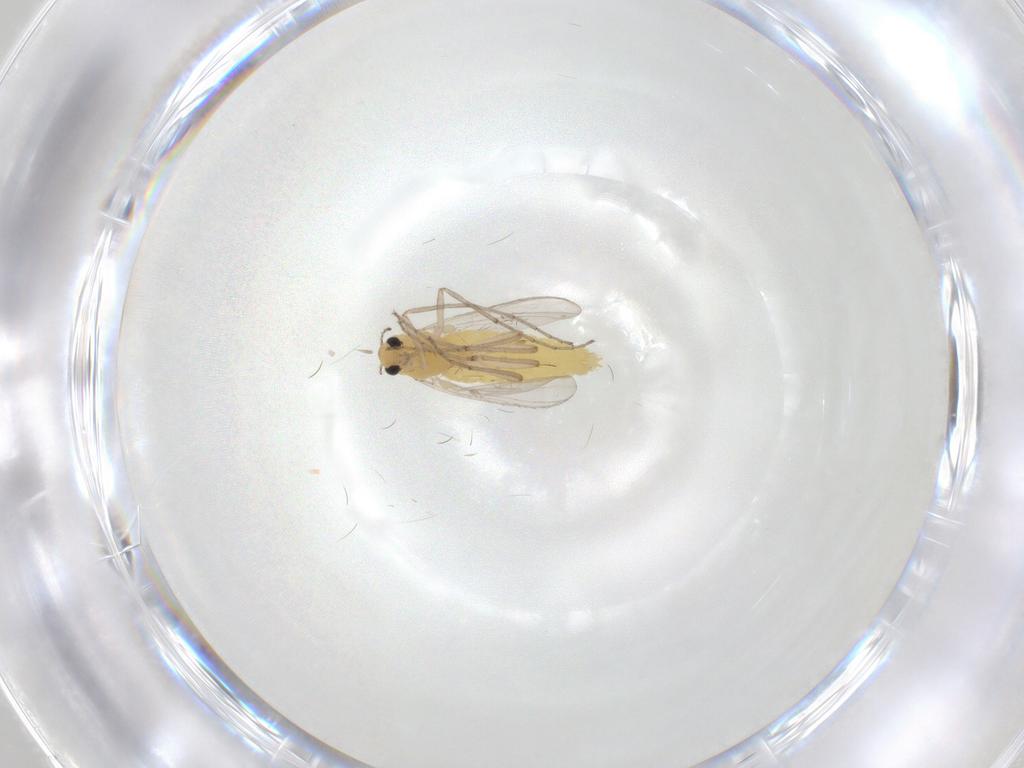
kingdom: Animalia
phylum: Arthropoda
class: Insecta
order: Diptera
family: Chironomidae
